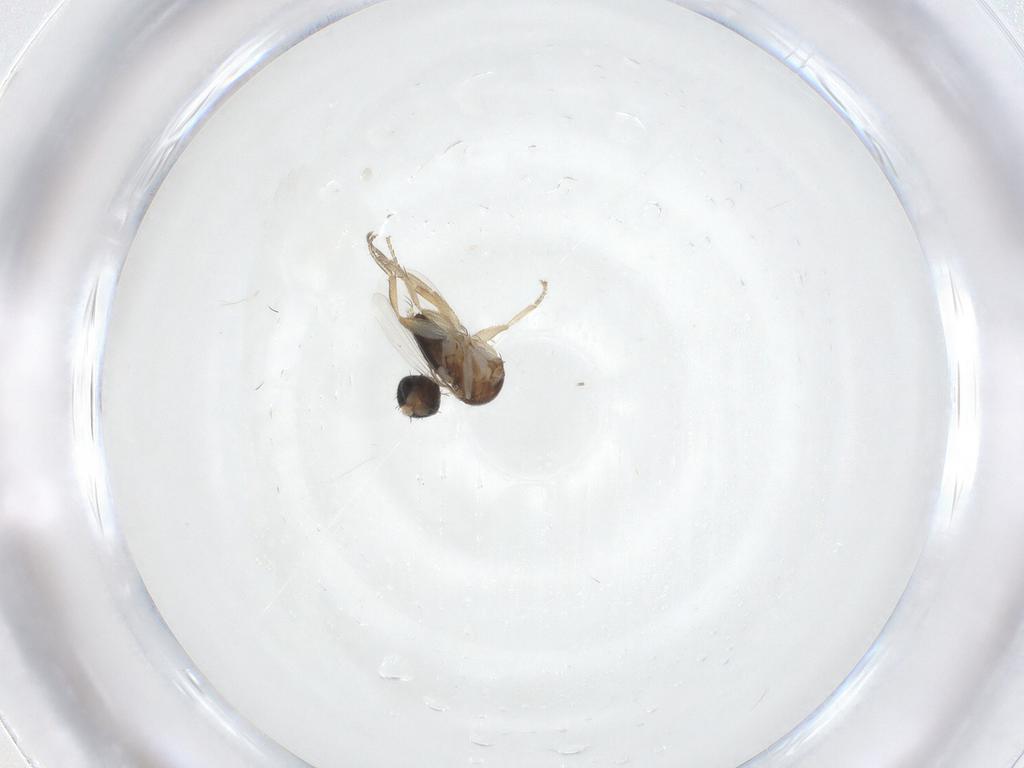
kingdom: Animalia
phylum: Arthropoda
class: Insecta
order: Diptera
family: Phoridae
